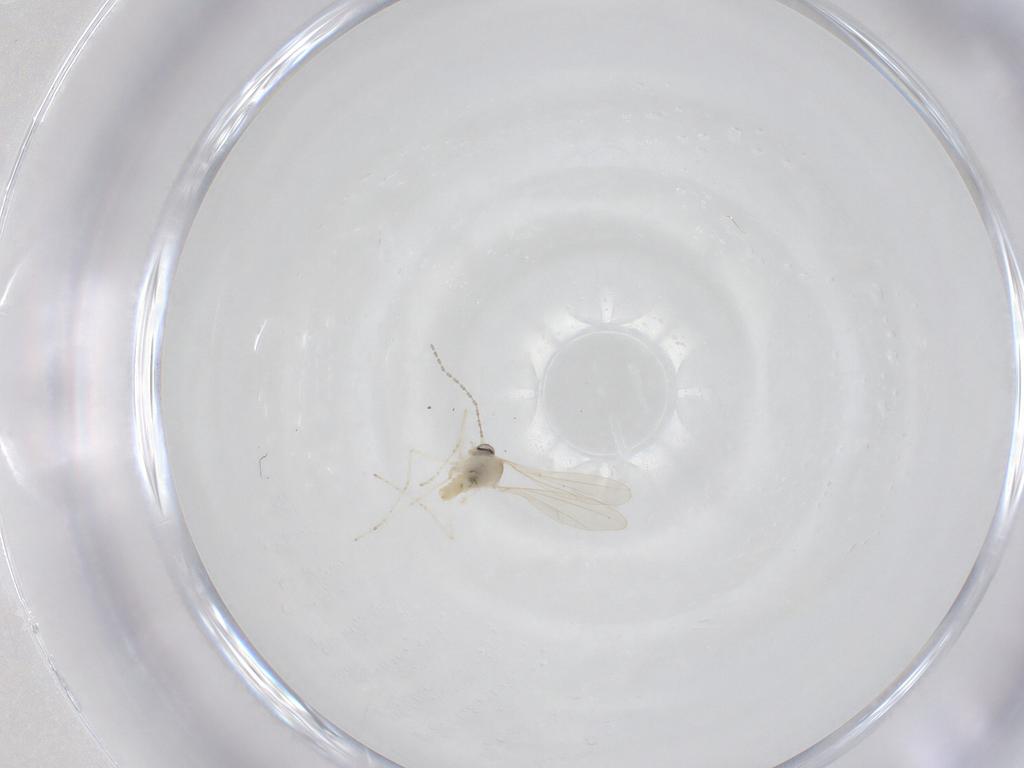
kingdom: Animalia
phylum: Arthropoda
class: Insecta
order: Diptera
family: Cecidomyiidae
